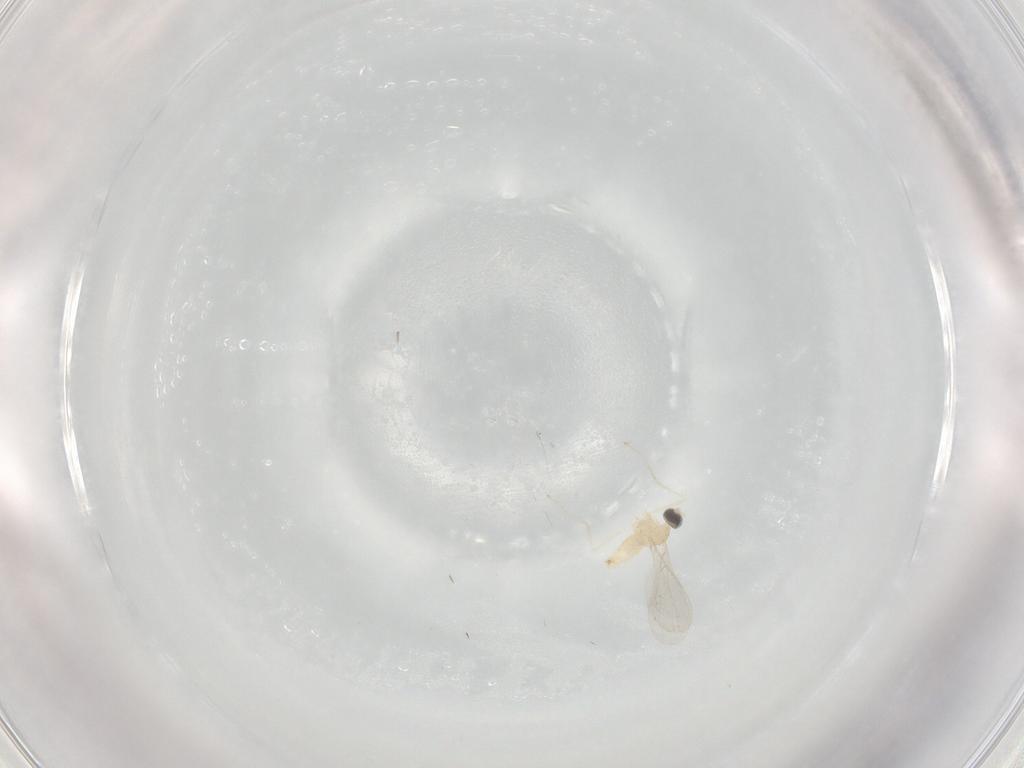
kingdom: Animalia
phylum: Arthropoda
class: Insecta
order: Diptera
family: Cecidomyiidae
